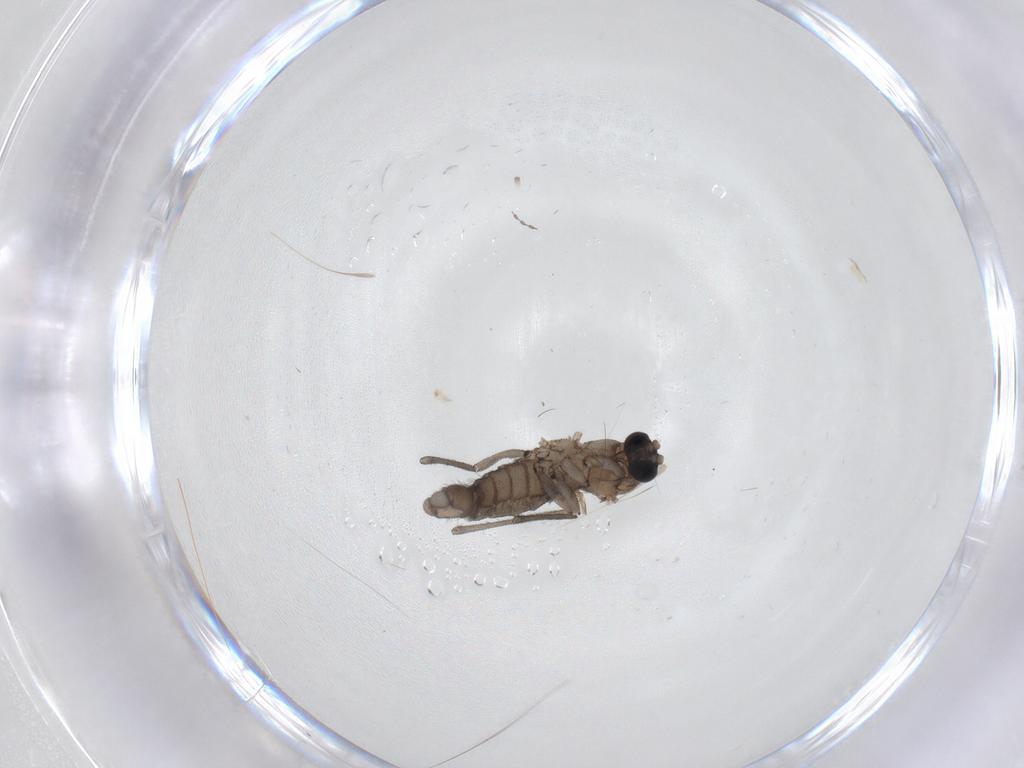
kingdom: Animalia
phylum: Arthropoda
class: Insecta
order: Diptera
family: Sciaridae
